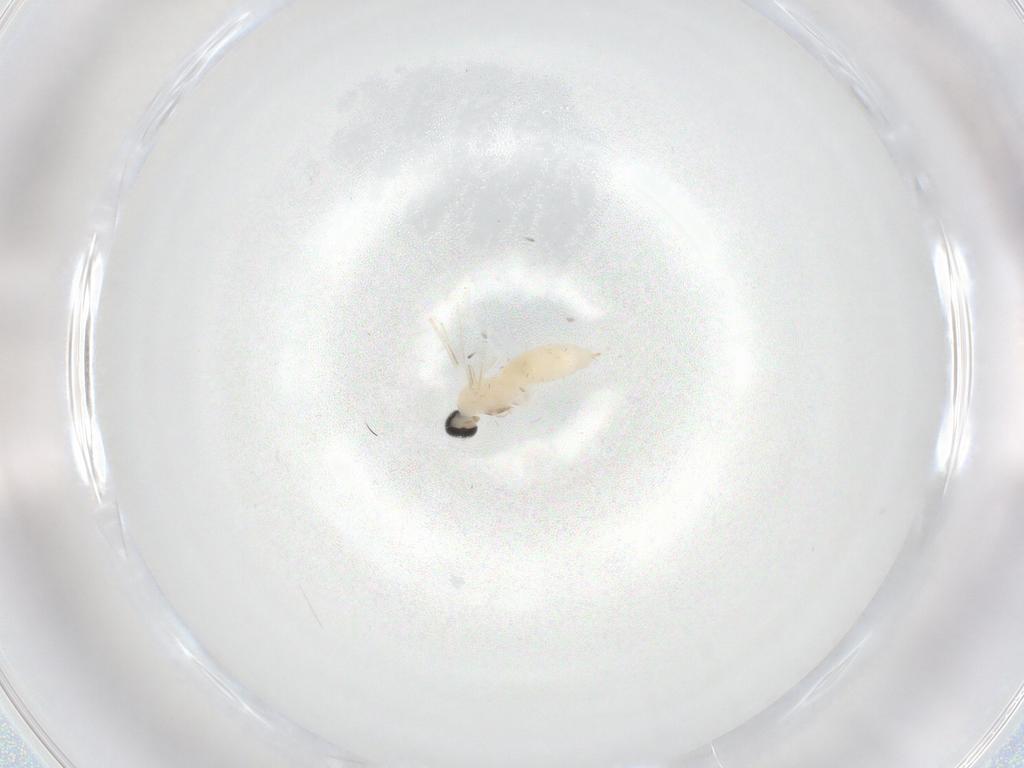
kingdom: Animalia
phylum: Arthropoda
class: Insecta
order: Diptera
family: Cecidomyiidae
